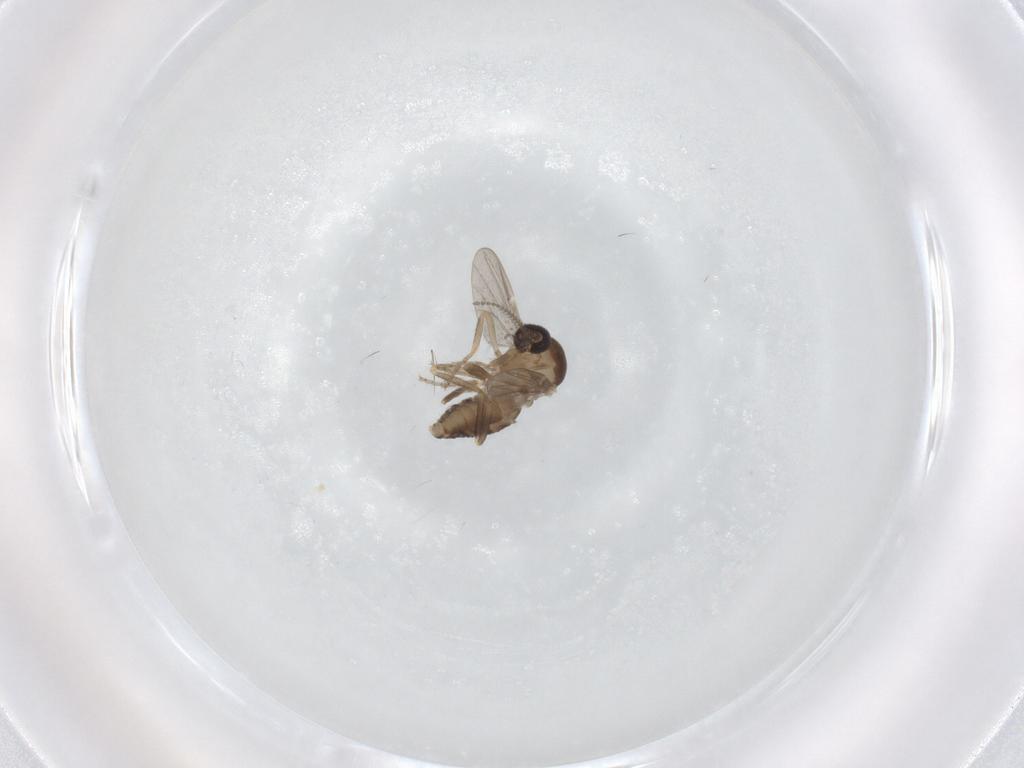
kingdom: Animalia
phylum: Arthropoda
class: Insecta
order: Diptera
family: Ceratopogonidae
